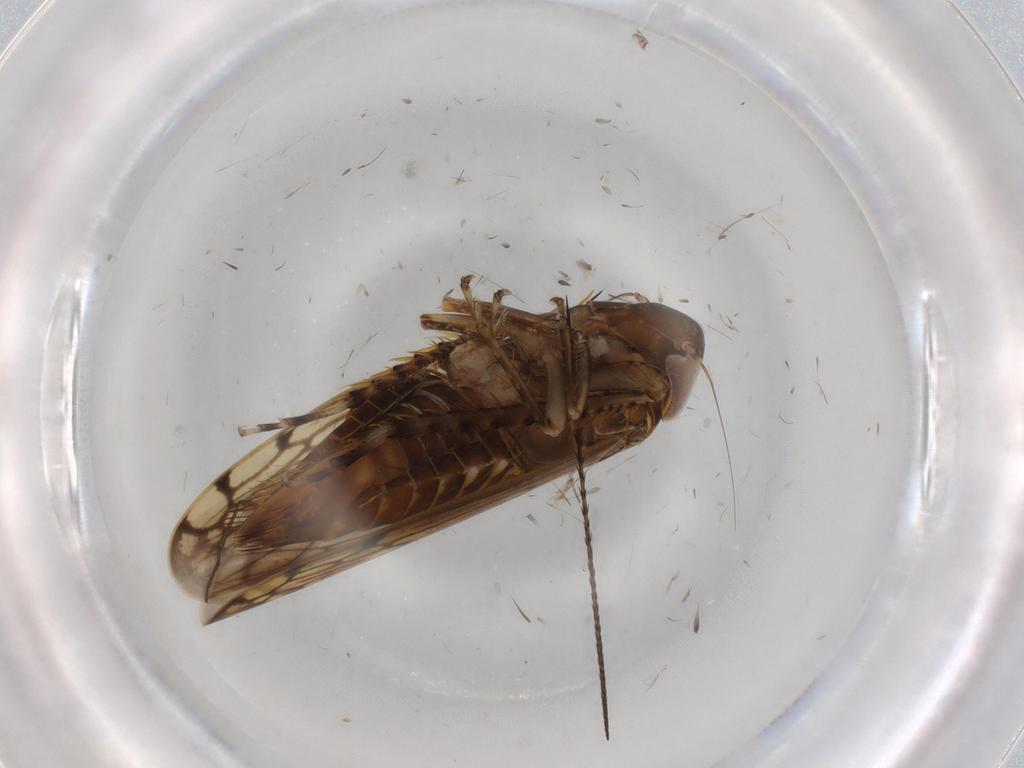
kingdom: Animalia
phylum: Arthropoda
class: Insecta
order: Hemiptera
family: Cicadellidae
